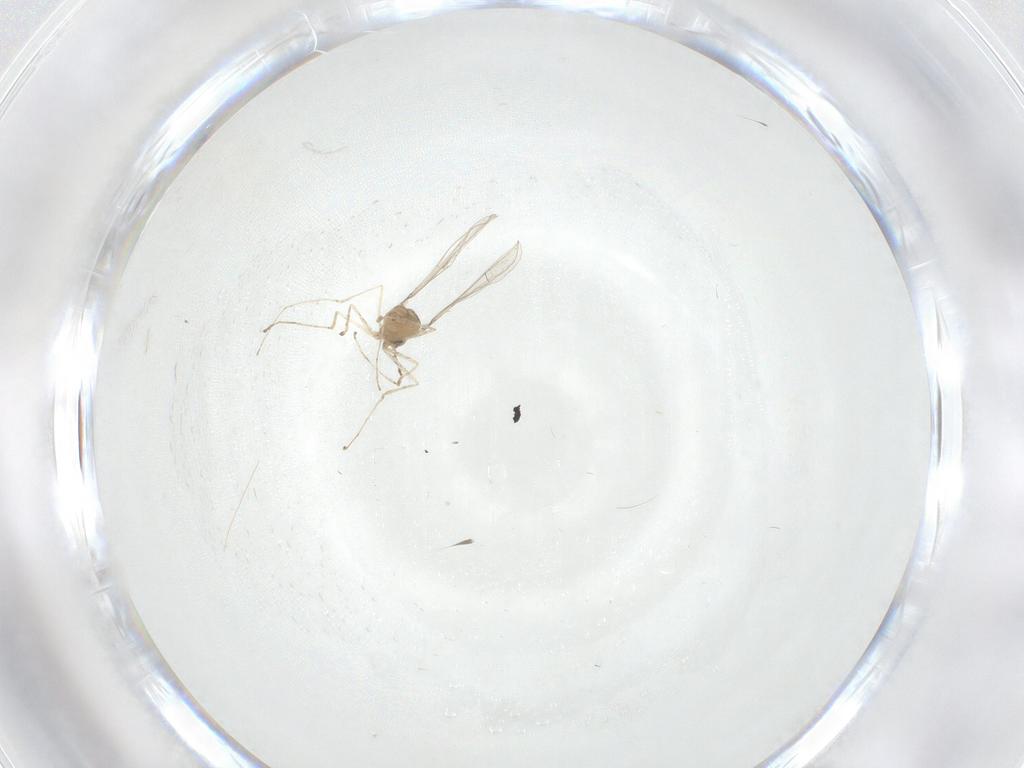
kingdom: Animalia
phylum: Arthropoda
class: Insecta
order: Diptera
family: Cecidomyiidae
